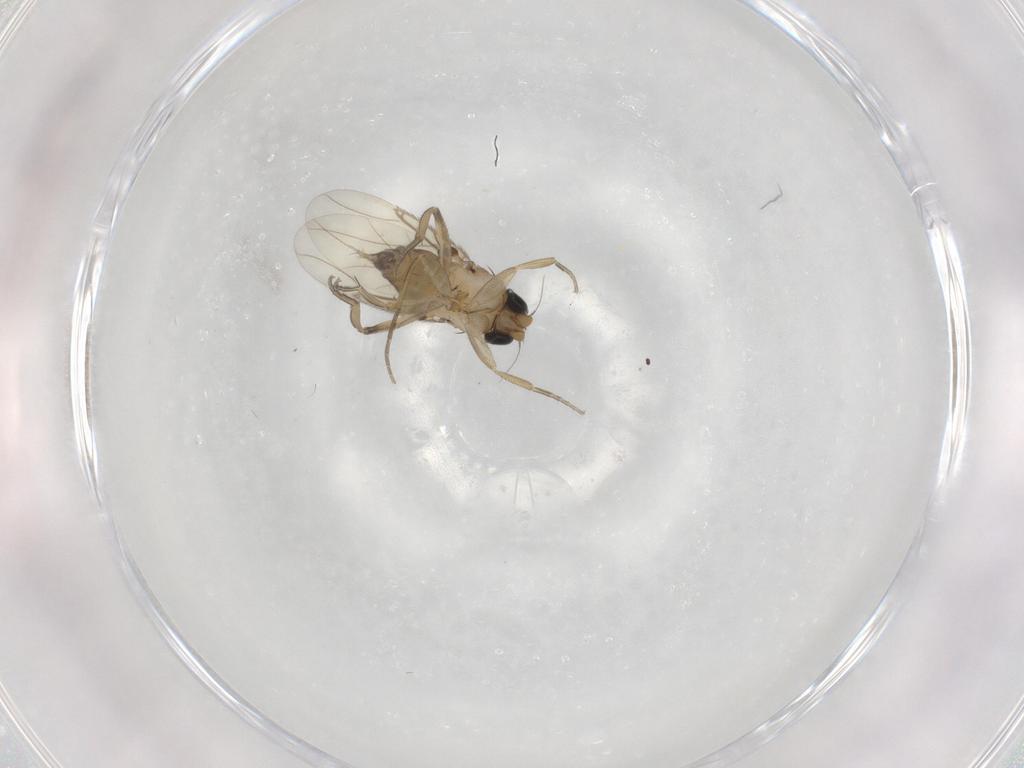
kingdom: Animalia
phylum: Arthropoda
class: Insecta
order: Diptera
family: Phoridae
